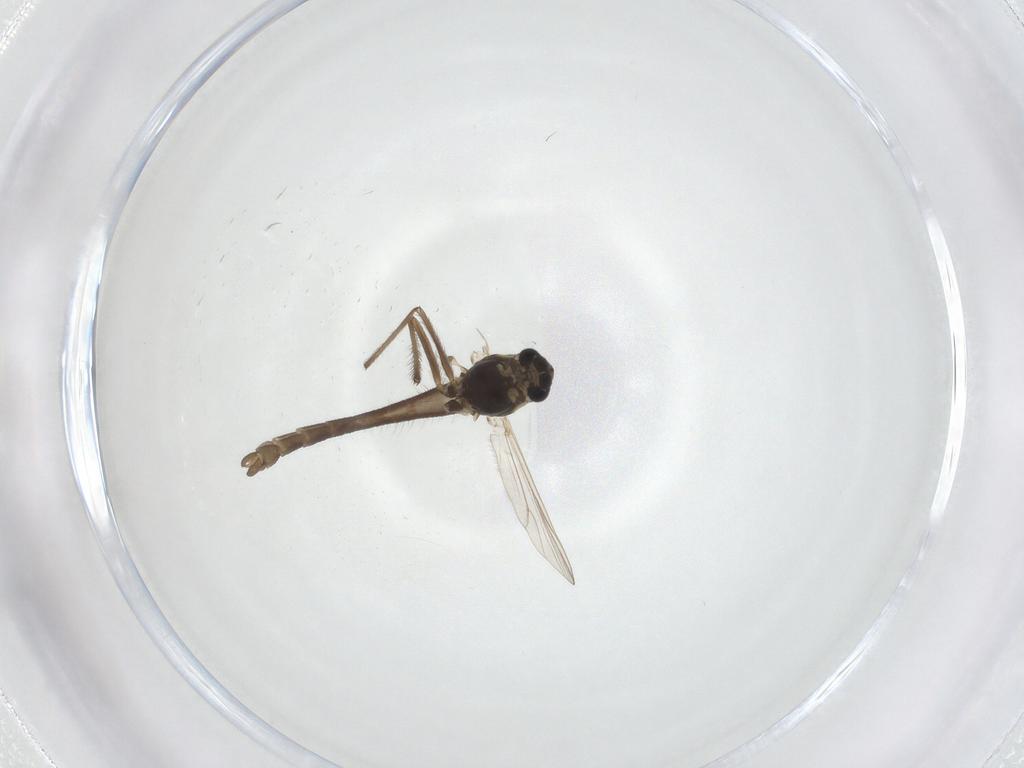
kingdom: Animalia
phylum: Arthropoda
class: Insecta
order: Diptera
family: Chironomidae
